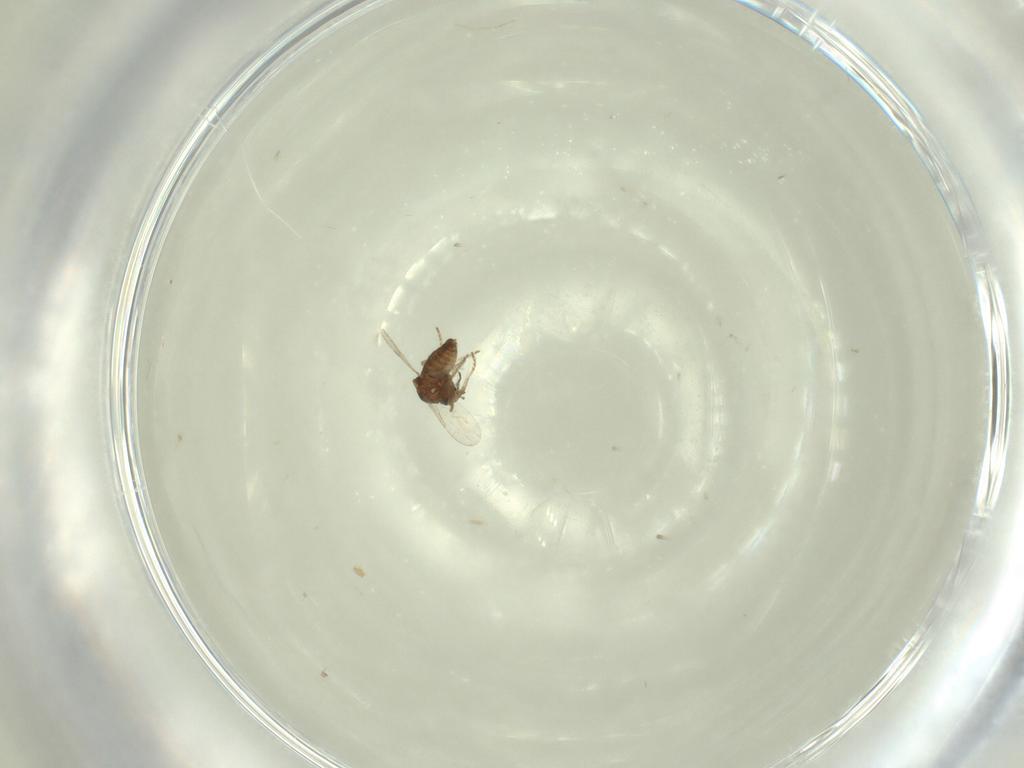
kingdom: Animalia
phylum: Arthropoda
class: Insecta
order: Diptera
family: Ceratopogonidae
